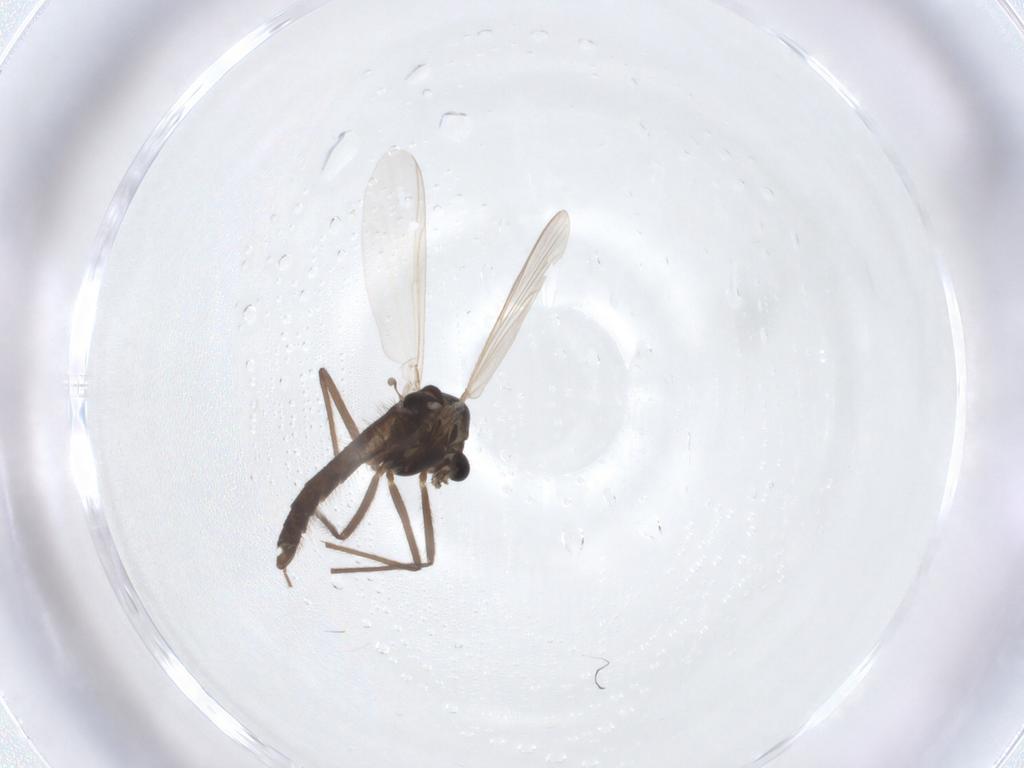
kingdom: Animalia
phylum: Arthropoda
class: Insecta
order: Diptera
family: Chironomidae
